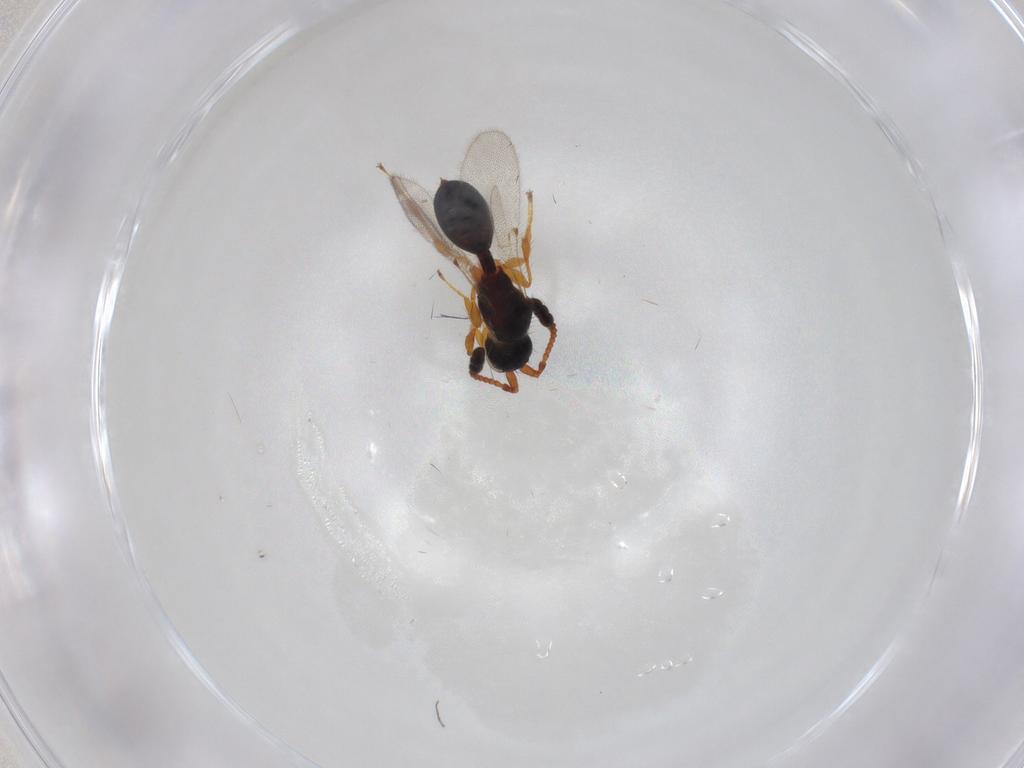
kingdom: Animalia
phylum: Arthropoda
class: Insecta
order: Hymenoptera
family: Diapriidae
